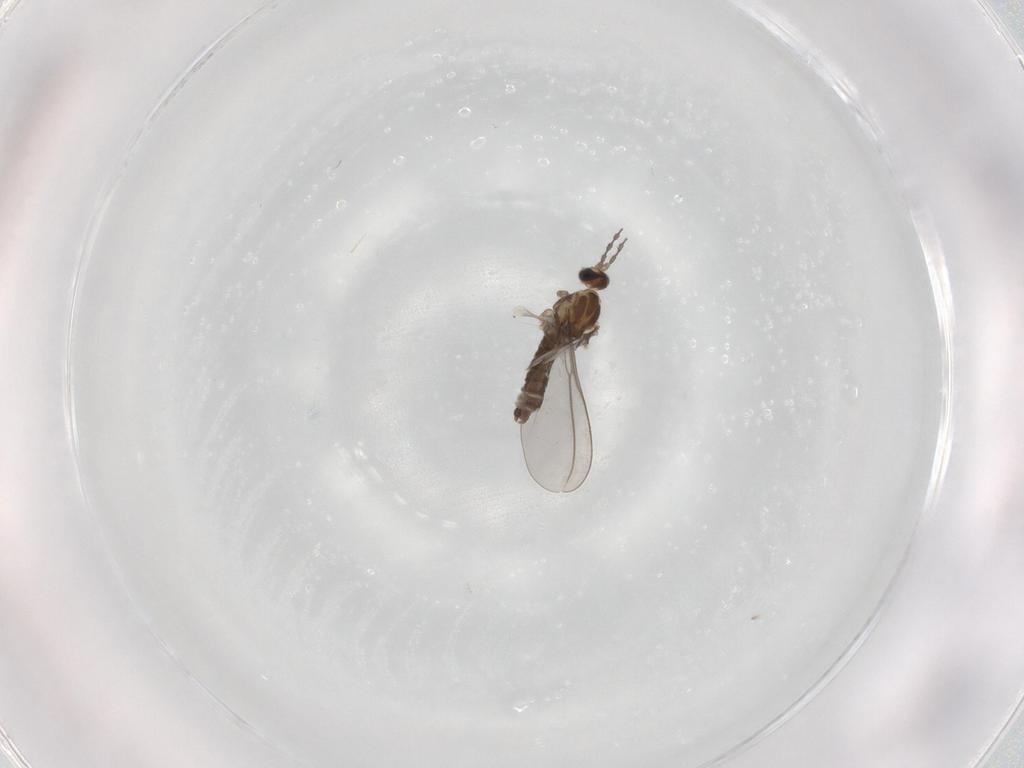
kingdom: Animalia
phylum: Arthropoda
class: Insecta
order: Diptera
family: Cecidomyiidae
